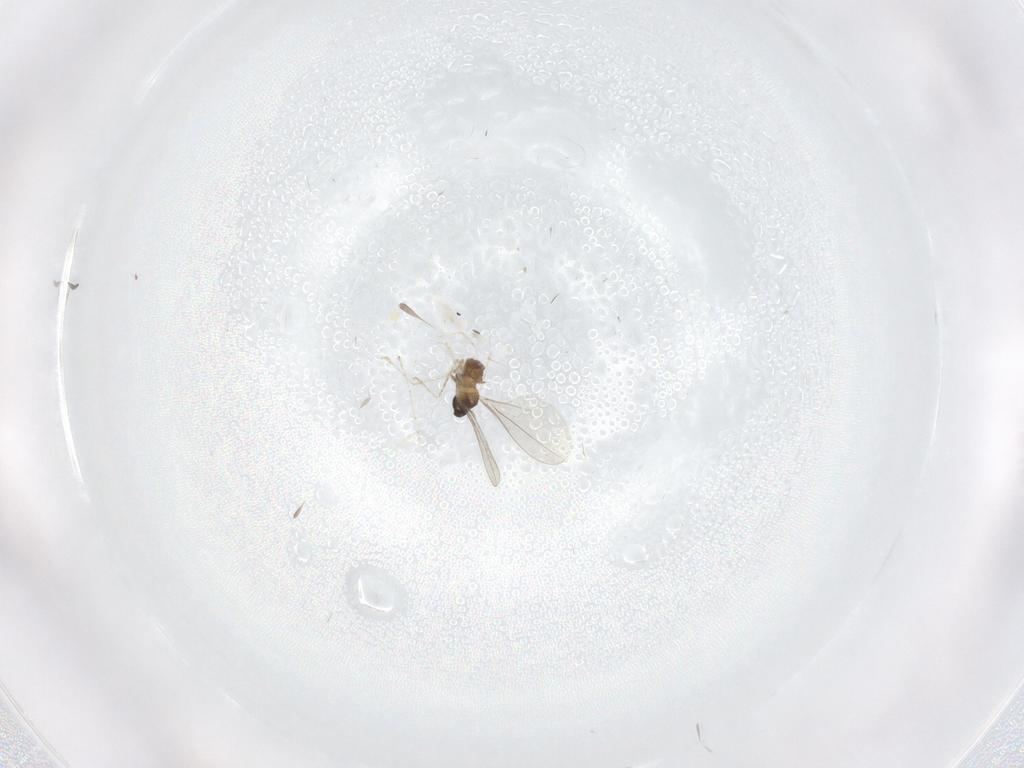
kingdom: Animalia
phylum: Arthropoda
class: Insecta
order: Diptera
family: Cecidomyiidae
